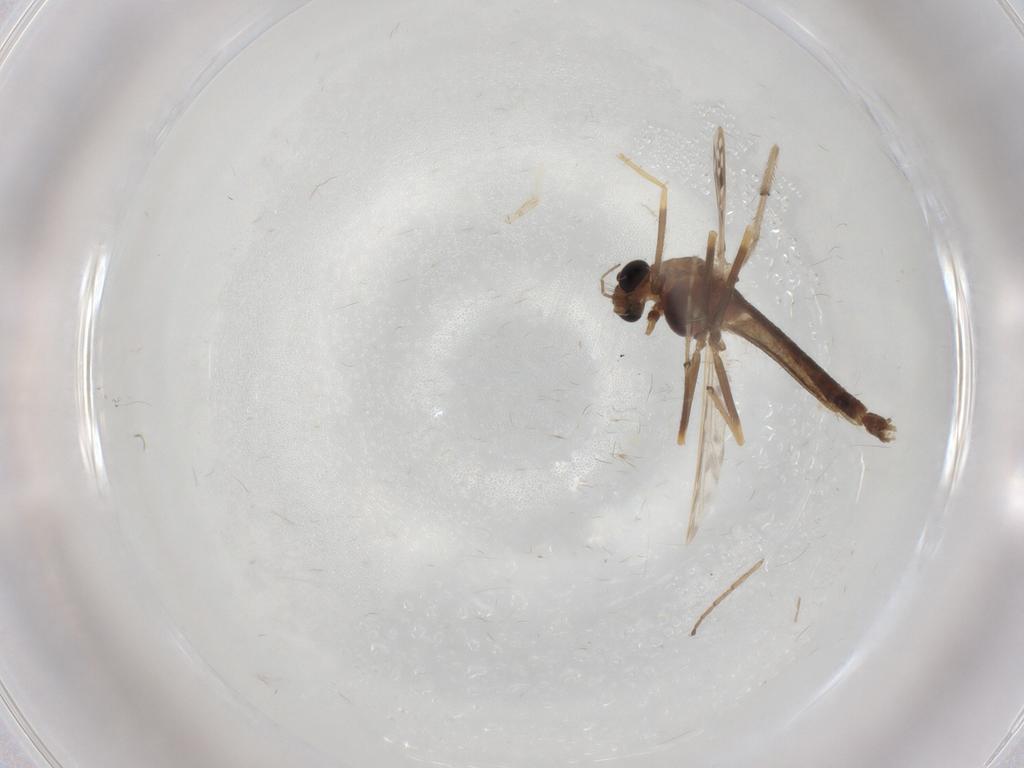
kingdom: Animalia
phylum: Arthropoda
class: Insecta
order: Diptera
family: Chironomidae
